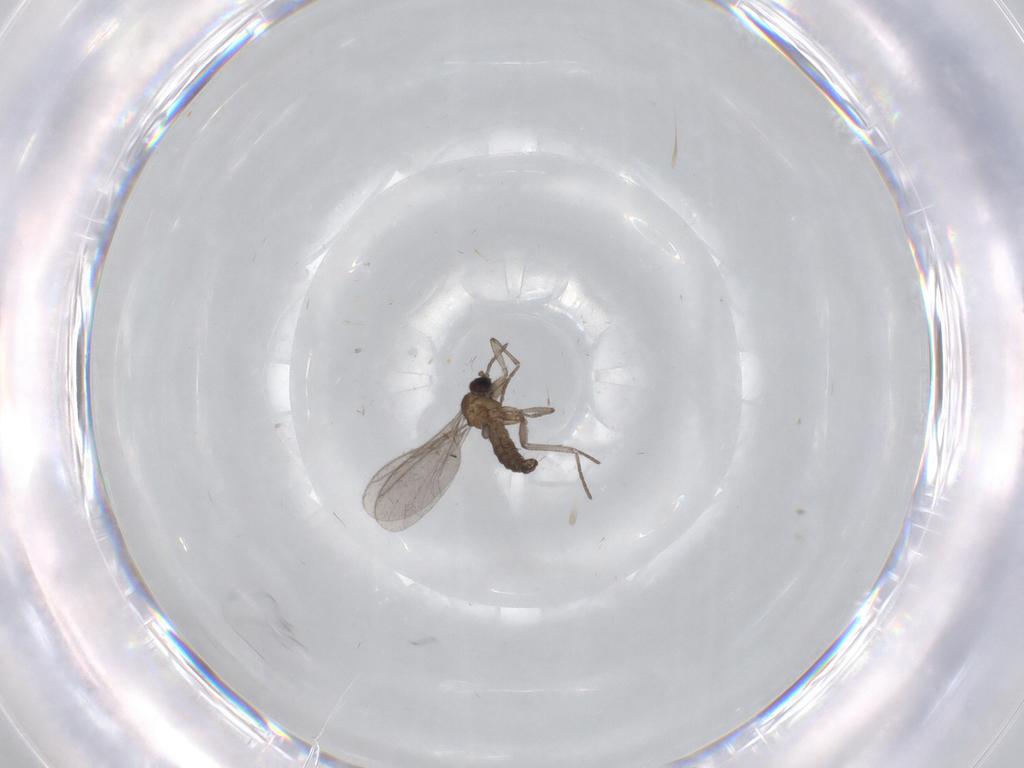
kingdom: Animalia
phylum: Arthropoda
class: Insecta
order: Diptera
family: Sciaridae
